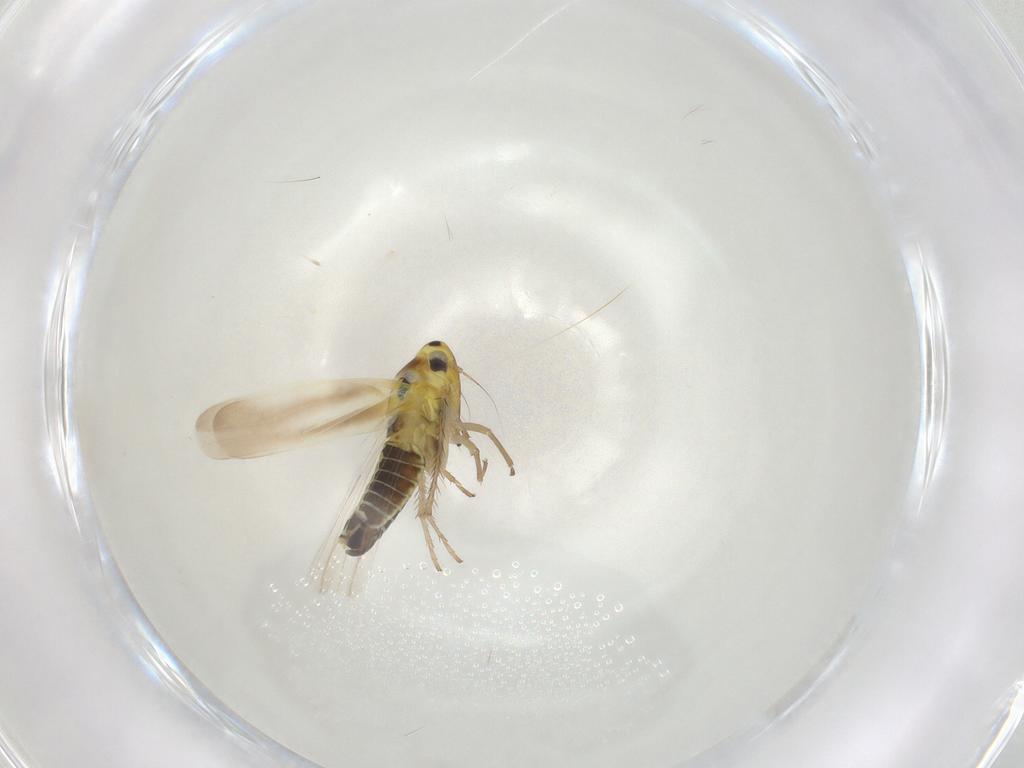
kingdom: Animalia
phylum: Arthropoda
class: Insecta
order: Hemiptera
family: Cicadellidae
